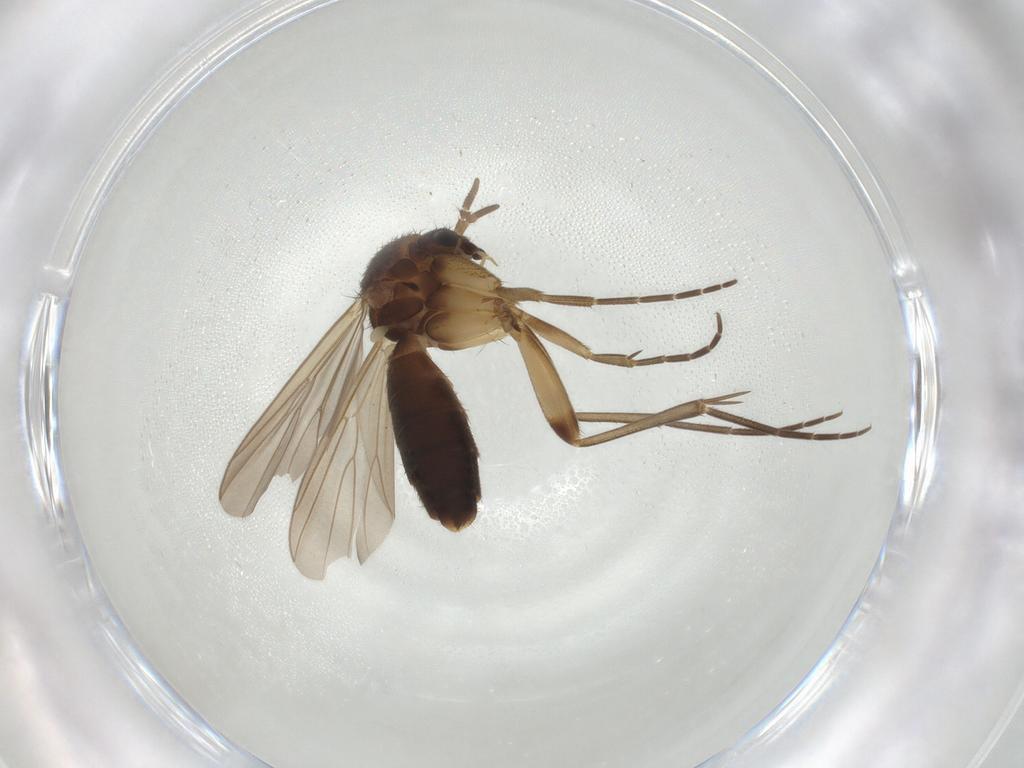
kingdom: Animalia
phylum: Arthropoda
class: Insecta
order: Diptera
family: Mycetophilidae
